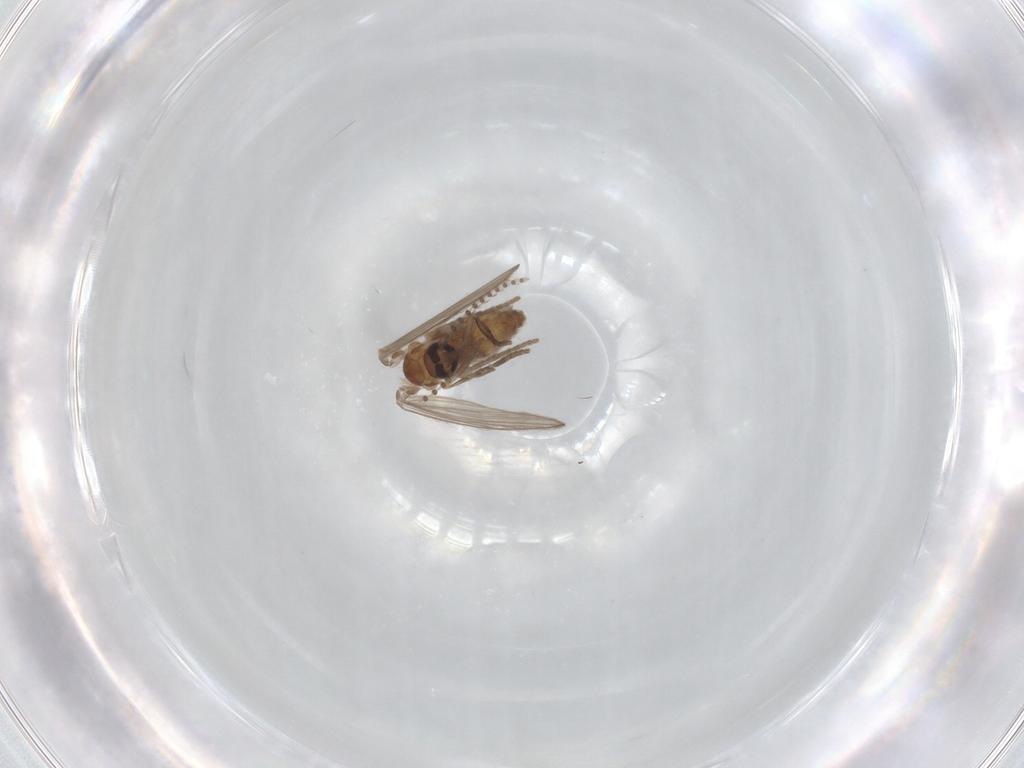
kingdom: Animalia
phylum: Arthropoda
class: Insecta
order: Diptera
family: Psychodidae
